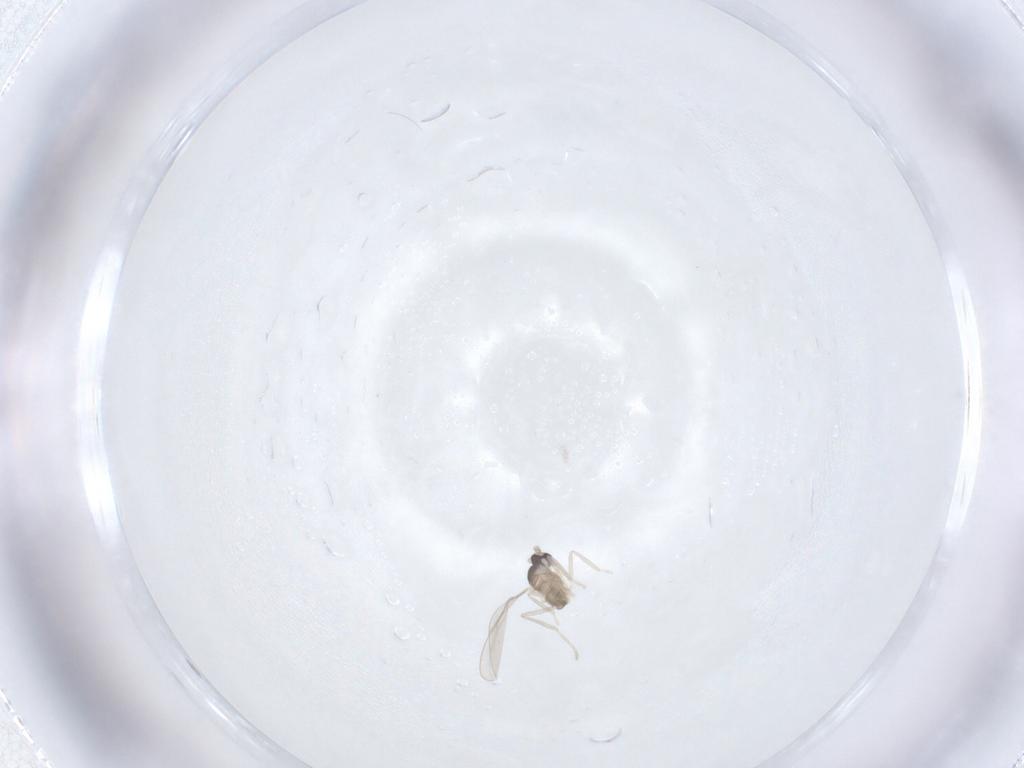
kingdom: Animalia
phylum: Arthropoda
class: Insecta
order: Diptera
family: Cecidomyiidae
